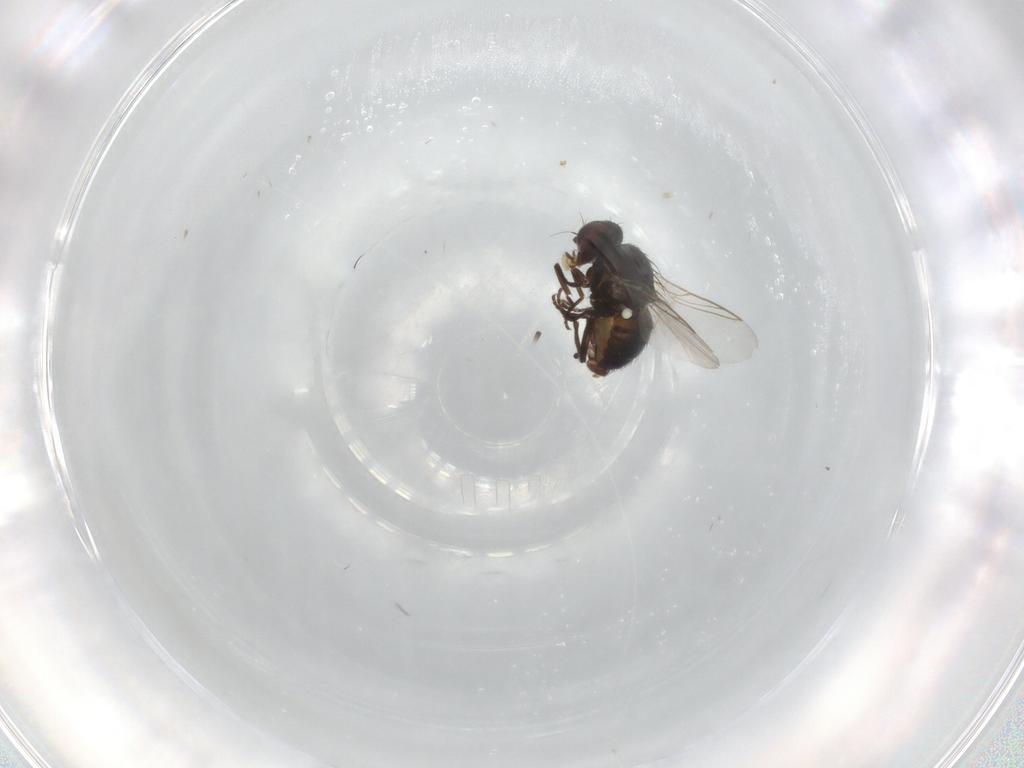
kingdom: Animalia
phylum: Arthropoda
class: Insecta
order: Diptera
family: Agromyzidae
